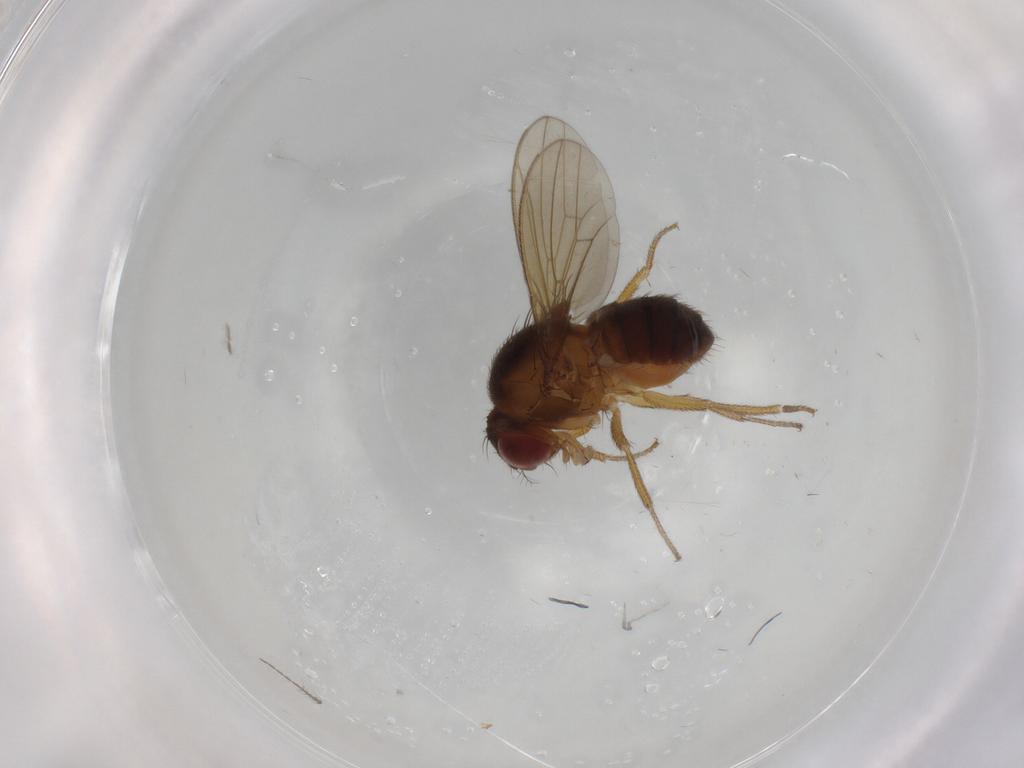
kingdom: Animalia
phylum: Arthropoda
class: Insecta
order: Diptera
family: Drosophilidae
